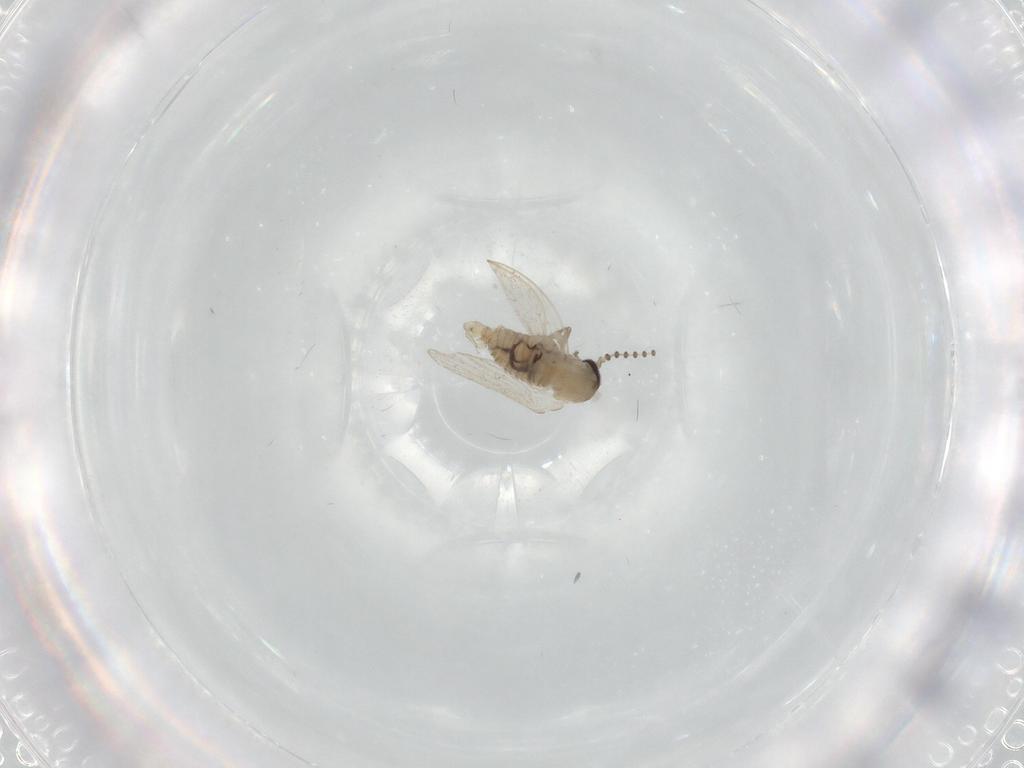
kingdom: Animalia
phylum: Arthropoda
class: Insecta
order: Diptera
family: Psychodidae
